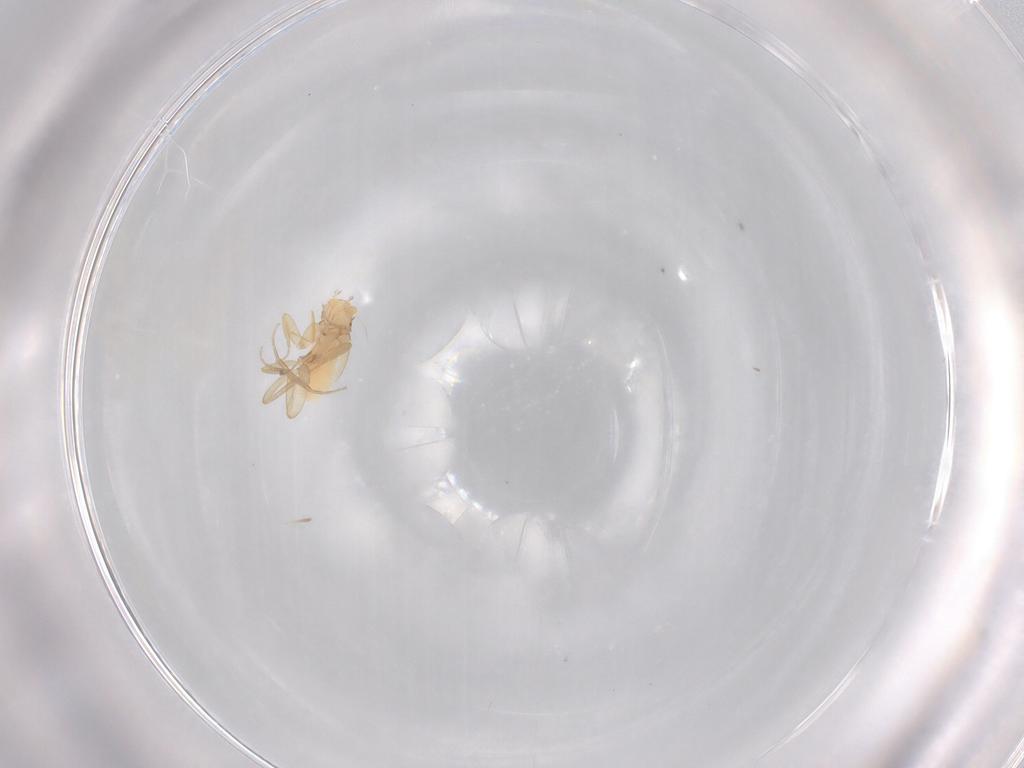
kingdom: Animalia
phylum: Arthropoda
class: Insecta
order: Diptera
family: Phoridae
